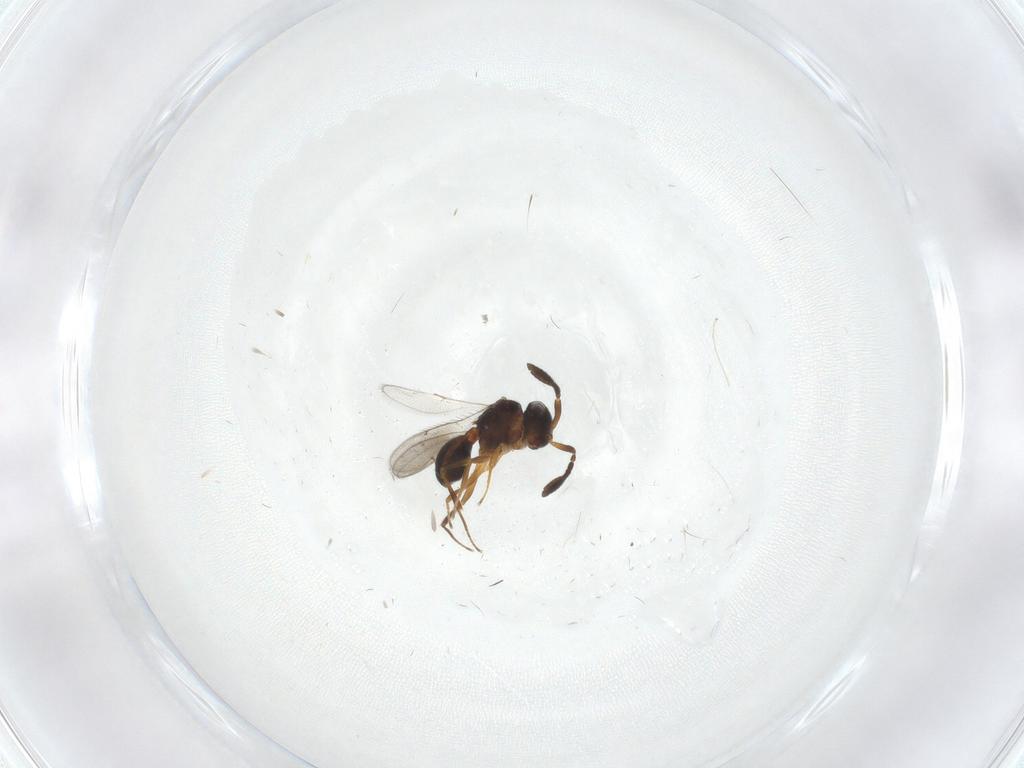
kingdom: Animalia
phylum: Arthropoda
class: Insecta
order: Hymenoptera
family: Scelionidae
